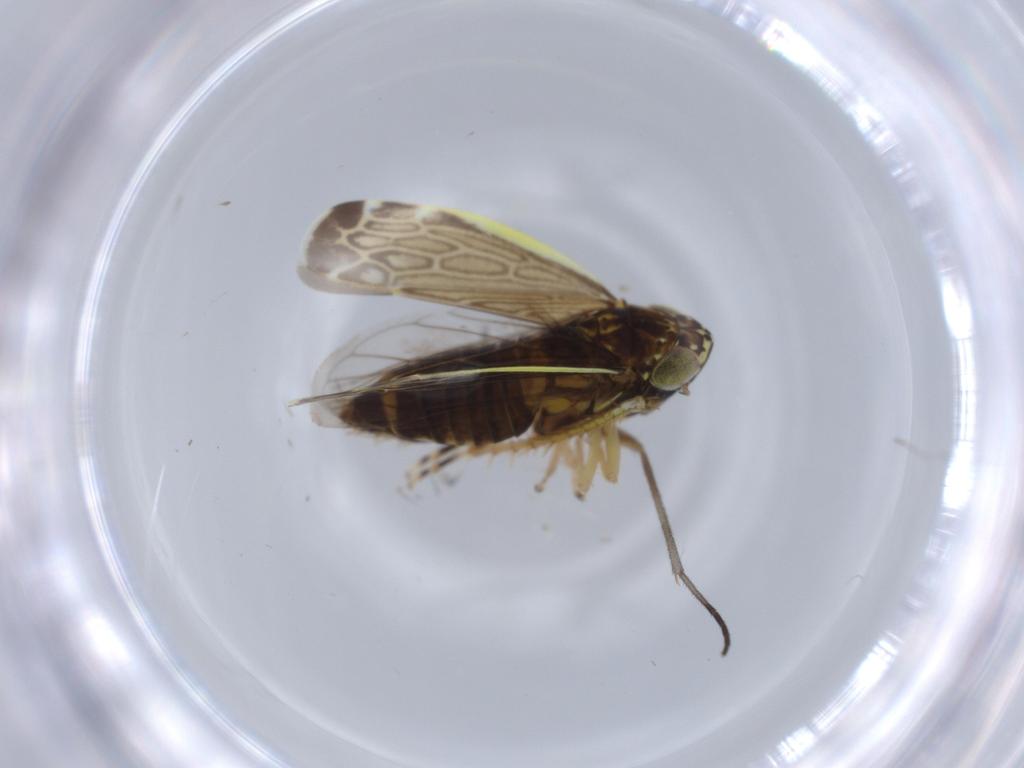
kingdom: Animalia
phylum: Arthropoda
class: Insecta
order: Hemiptera
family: Cicadellidae
